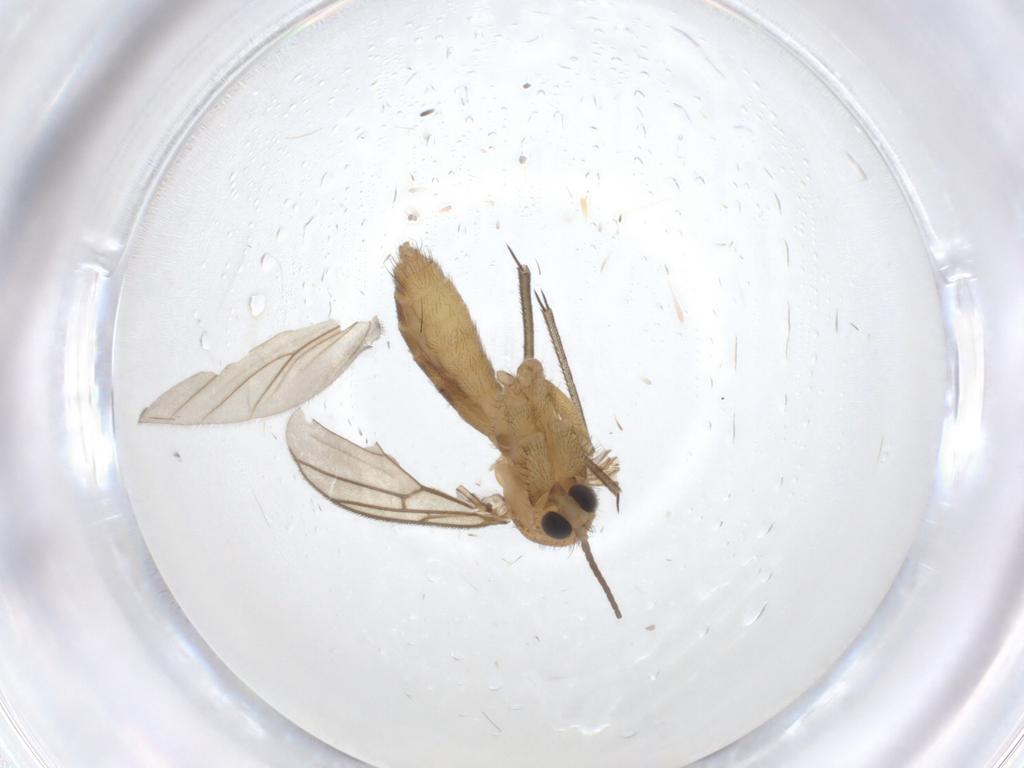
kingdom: Animalia
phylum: Arthropoda
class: Insecta
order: Diptera
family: Mycetophilidae
